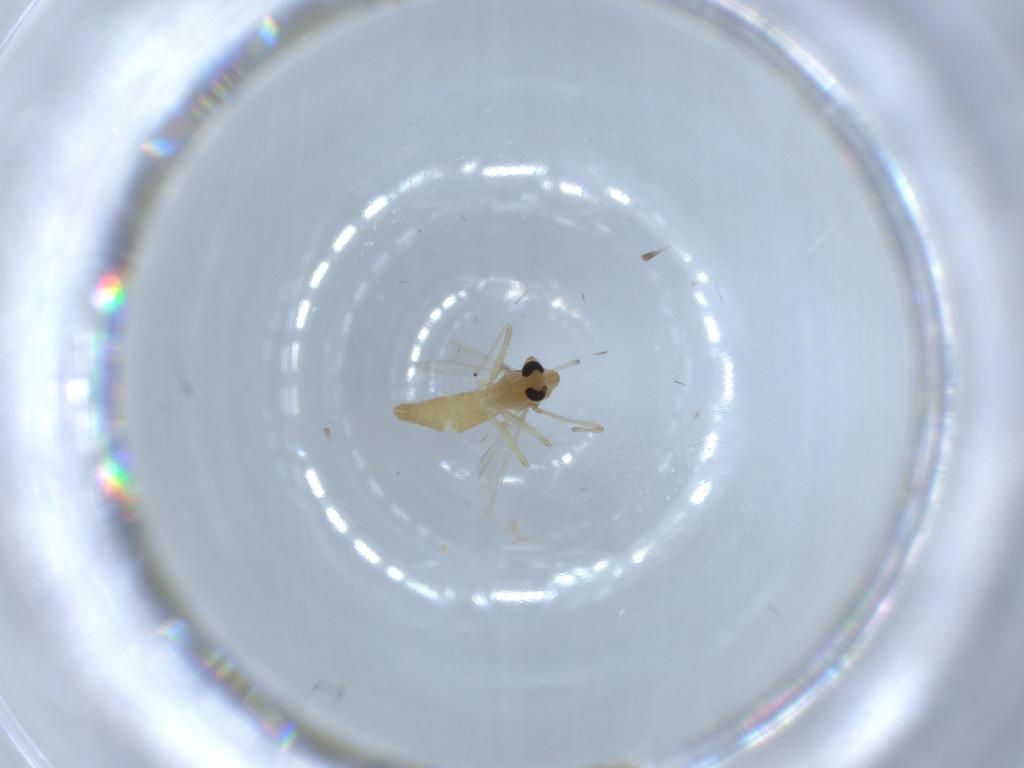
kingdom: Animalia
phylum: Arthropoda
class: Insecta
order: Diptera
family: Chironomidae
